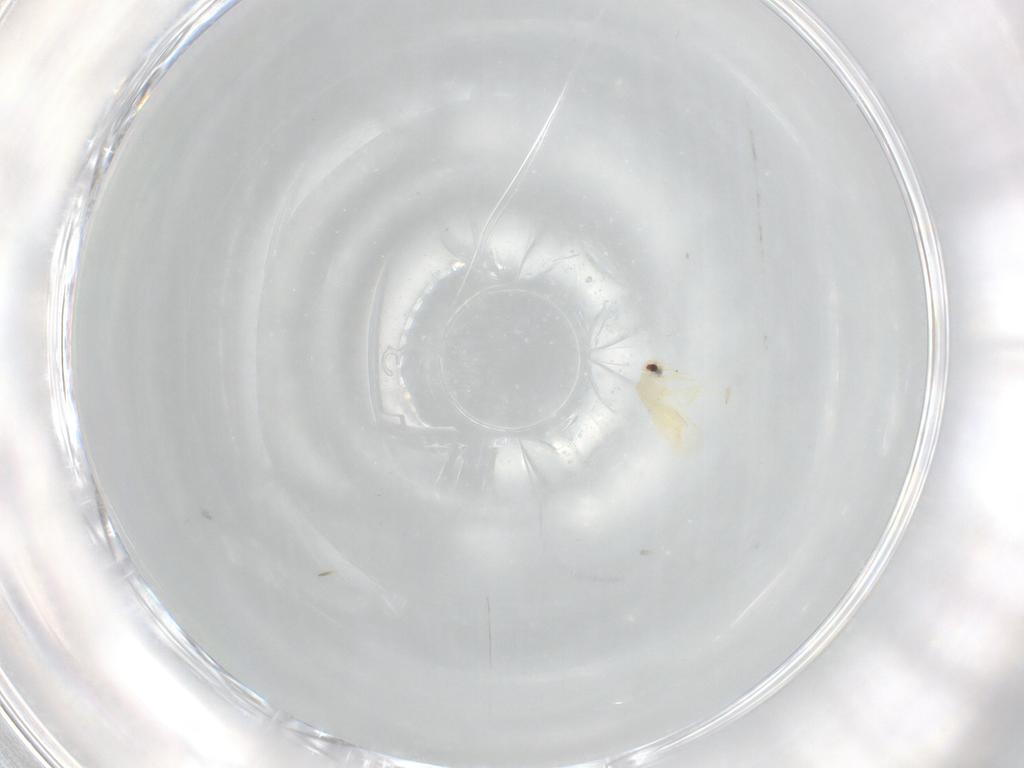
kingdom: Animalia
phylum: Arthropoda
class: Insecta
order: Hemiptera
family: Aleyrodidae
